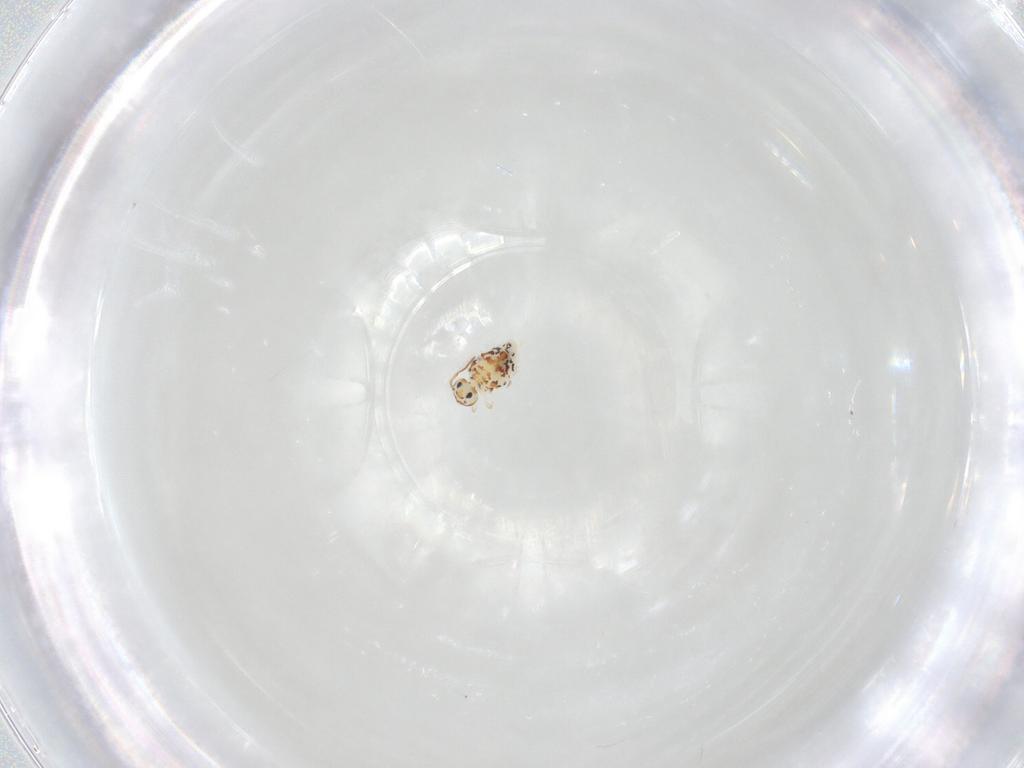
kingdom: Animalia
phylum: Arthropoda
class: Collembola
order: Symphypleona
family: Bourletiellidae
